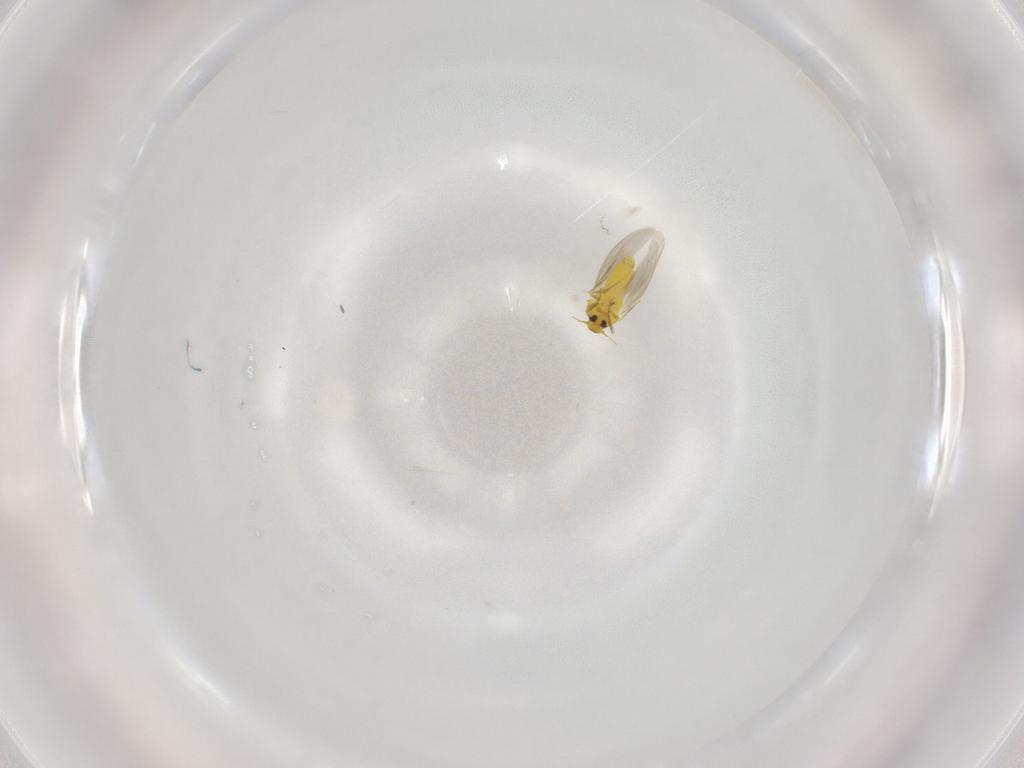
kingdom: Animalia
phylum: Arthropoda
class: Insecta
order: Hemiptera
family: Aleyrodidae
